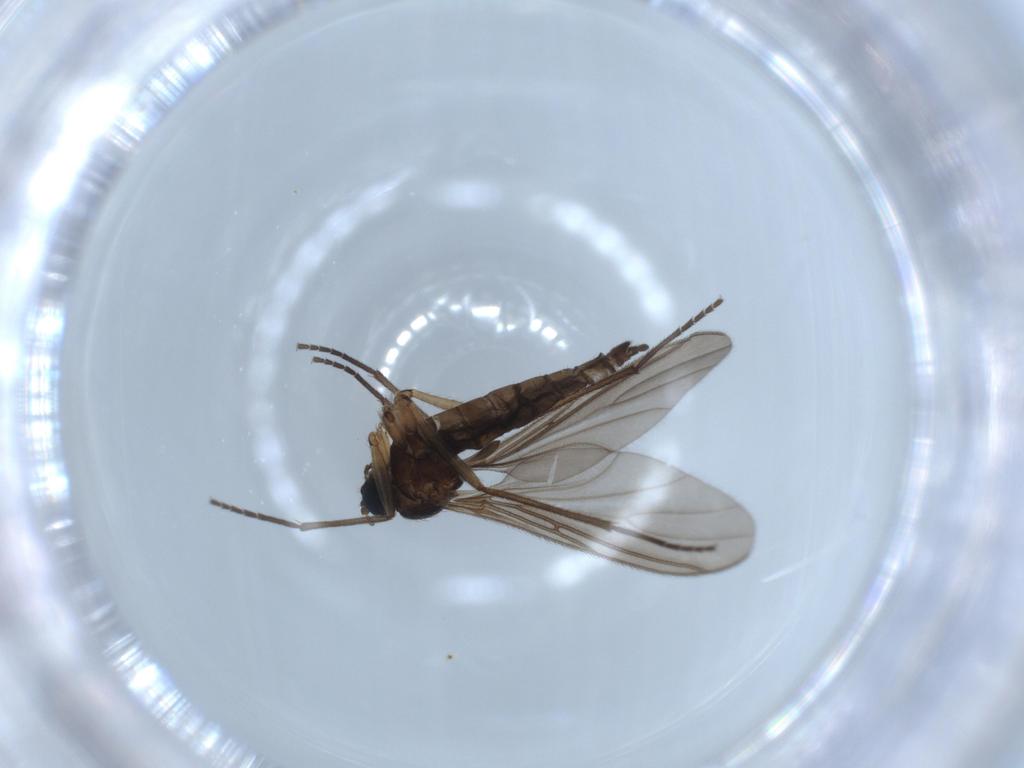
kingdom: Animalia
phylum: Arthropoda
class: Insecta
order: Diptera
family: Sciaridae
